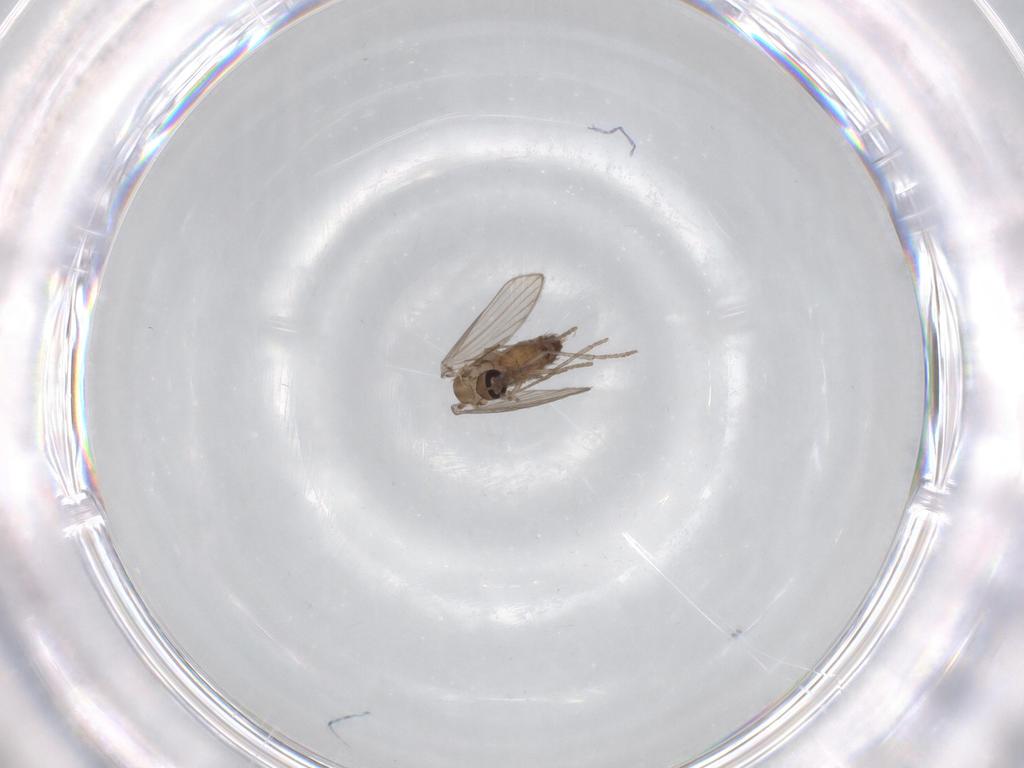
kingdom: Animalia
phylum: Arthropoda
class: Insecta
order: Diptera
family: Psychodidae
